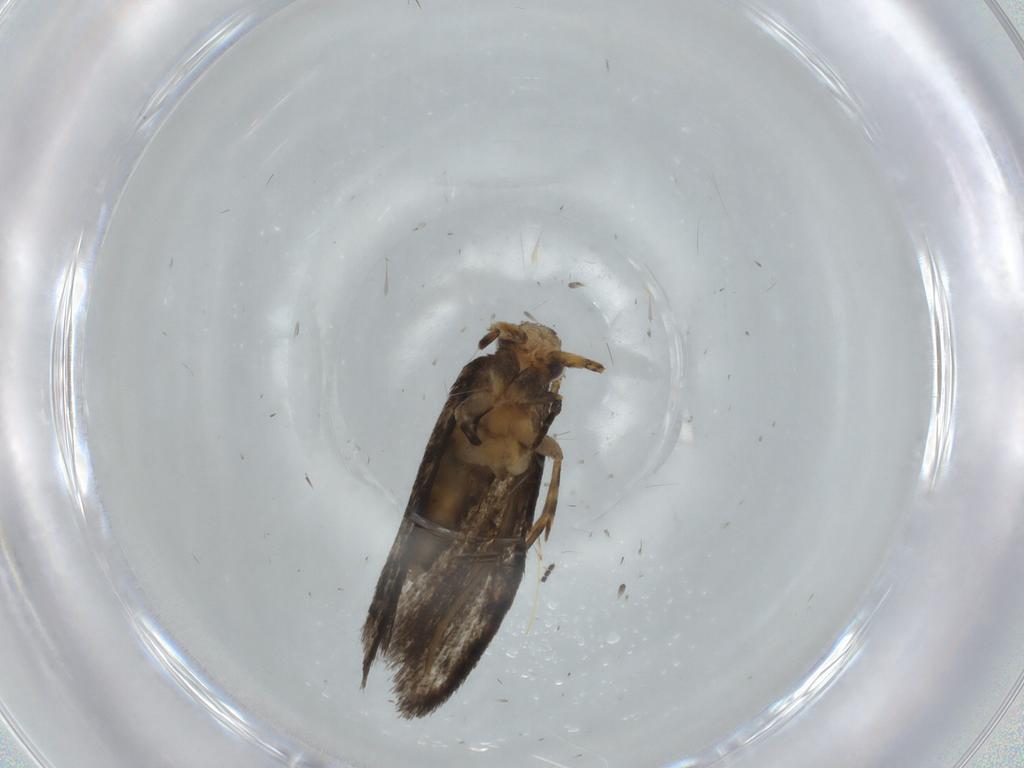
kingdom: Animalia
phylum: Arthropoda
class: Insecta
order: Lepidoptera
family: Tineidae
